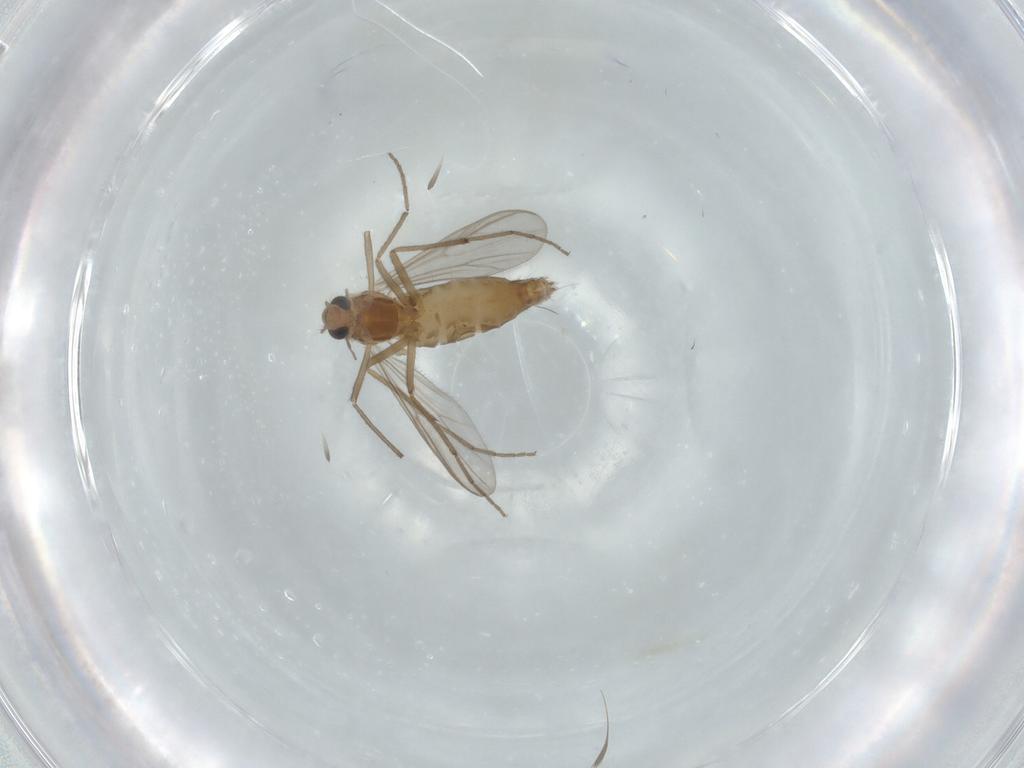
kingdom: Animalia
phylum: Arthropoda
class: Insecta
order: Diptera
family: Chironomidae
